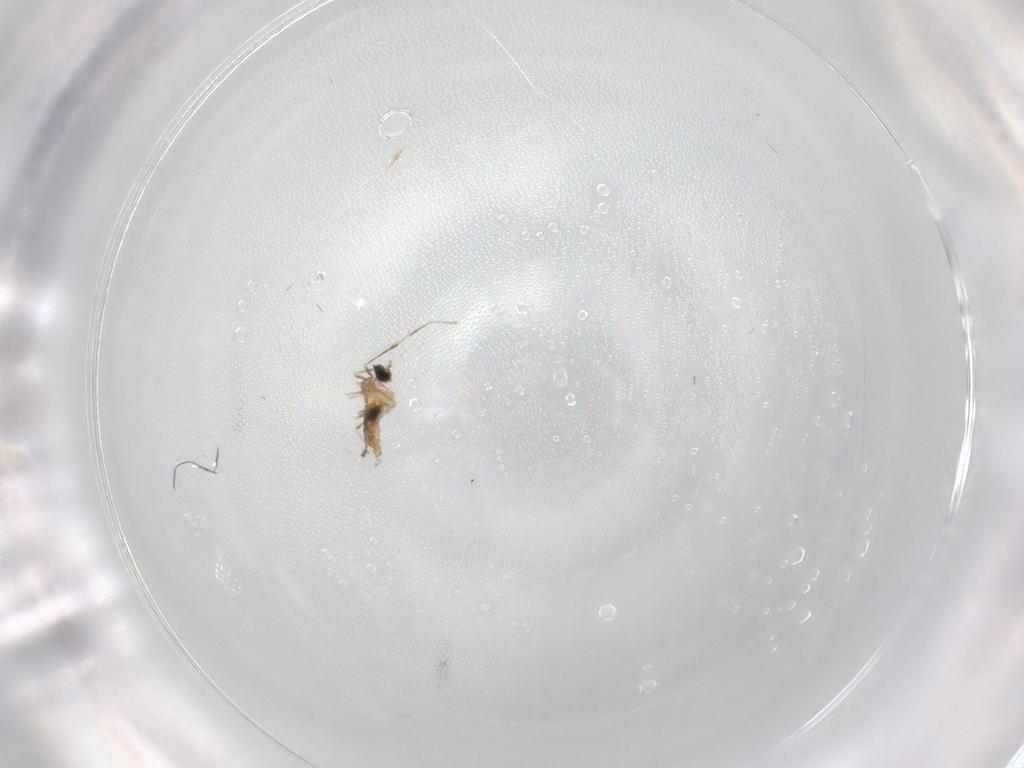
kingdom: Animalia
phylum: Arthropoda
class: Insecta
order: Diptera
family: Cecidomyiidae
